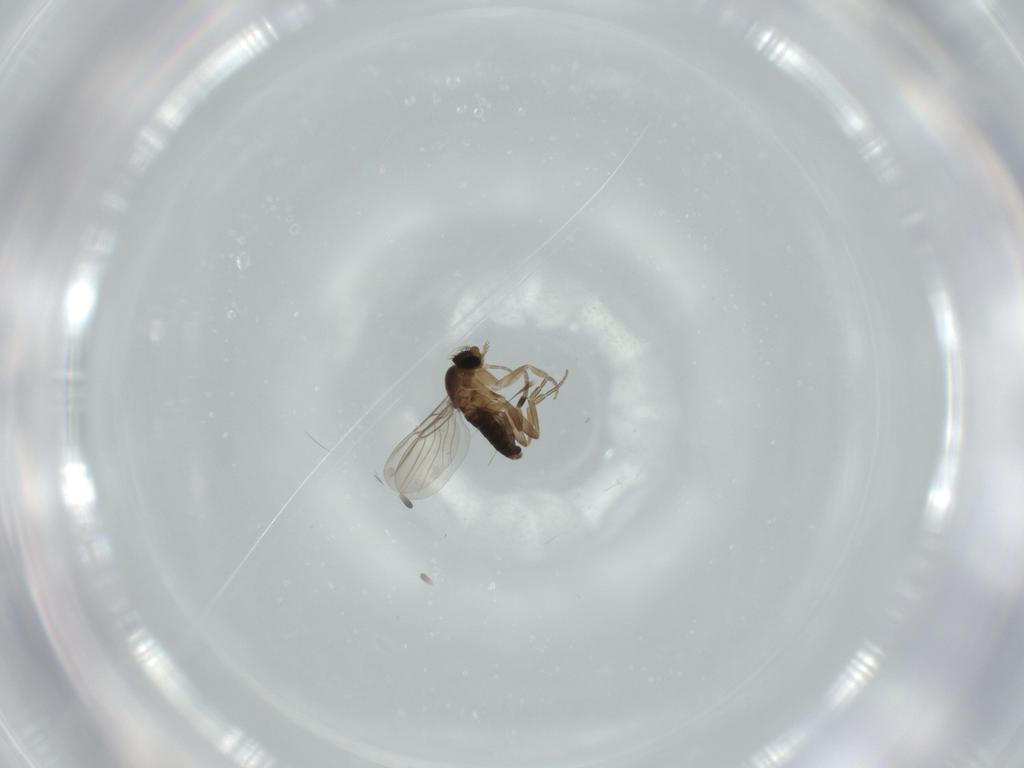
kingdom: Animalia
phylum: Arthropoda
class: Insecta
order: Diptera
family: Phoridae
